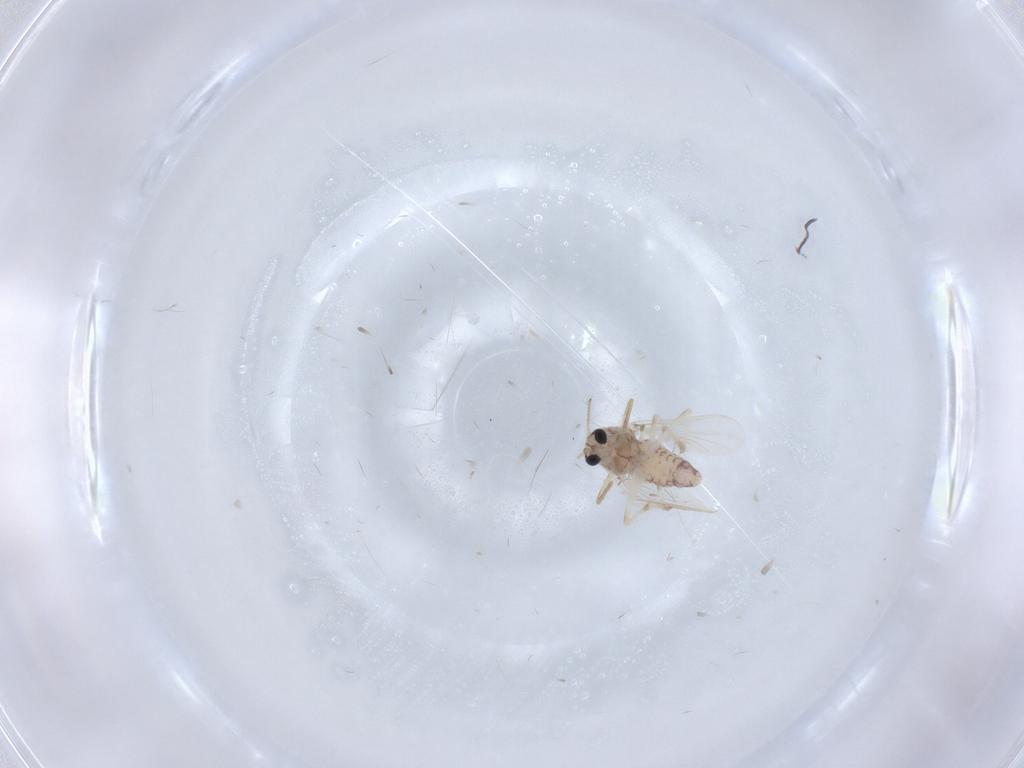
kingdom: Animalia
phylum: Arthropoda
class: Insecta
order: Diptera
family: Chironomidae
